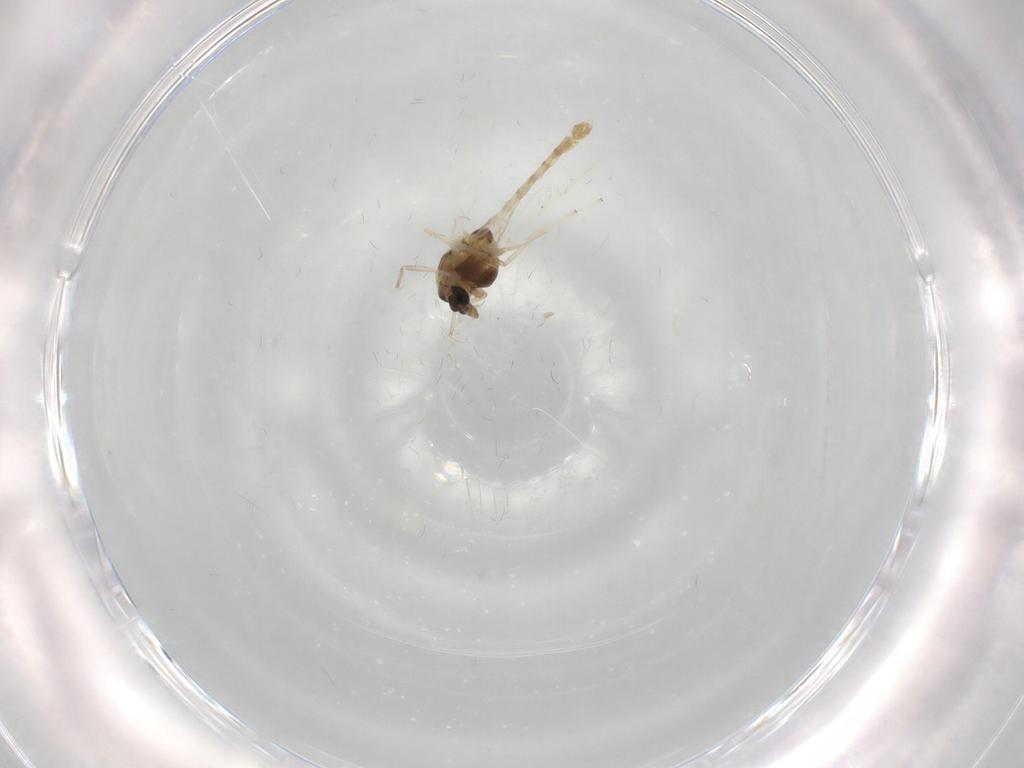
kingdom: Animalia
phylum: Arthropoda
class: Insecta
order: Diptera
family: Chironomidae
